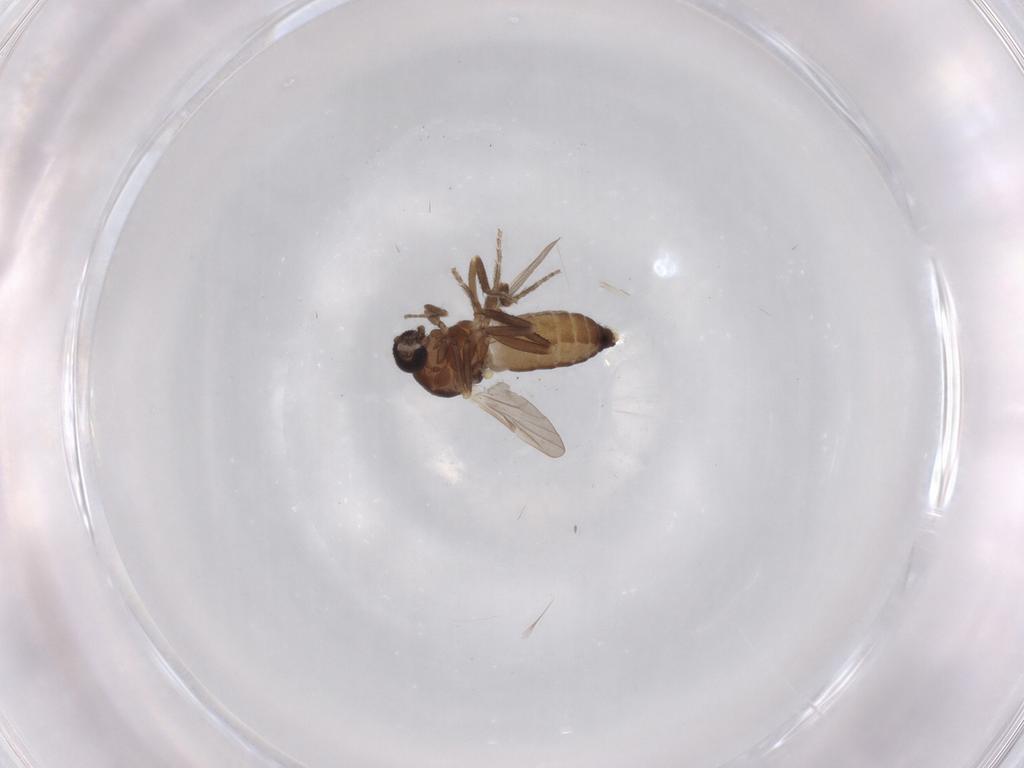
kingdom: Animalia
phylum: Arthropoda
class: Insecta
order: Diptera
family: Ceratopogonidae
